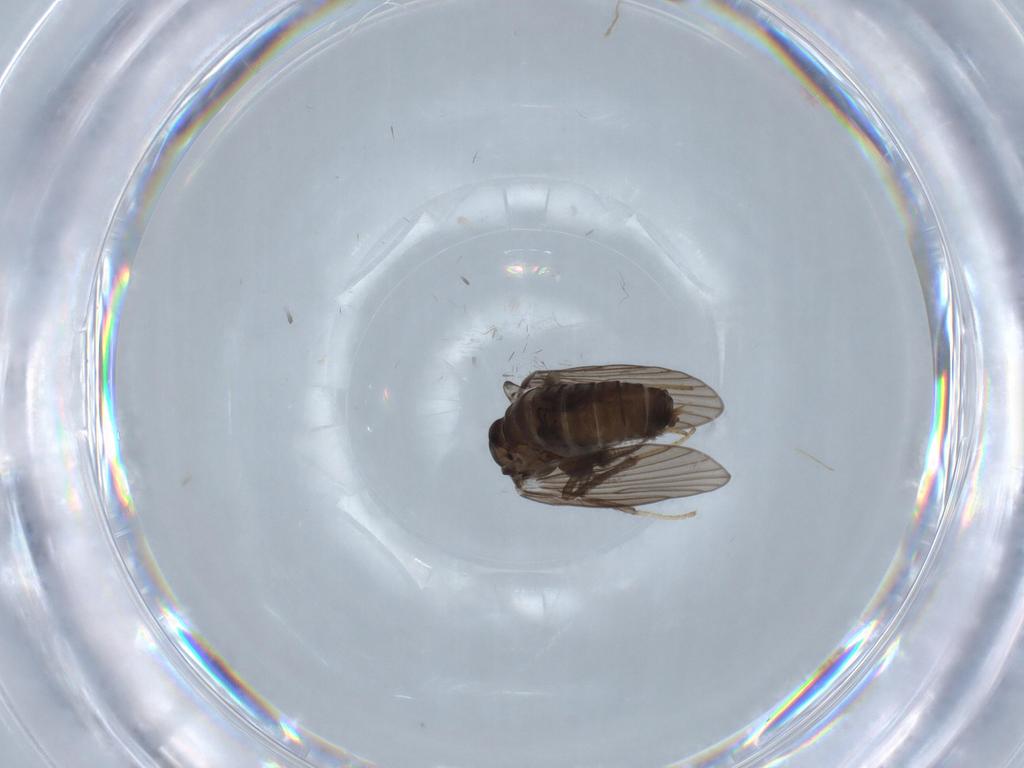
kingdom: Animalia
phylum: Arthropoda
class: Insecta
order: Diptera
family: Psychodidae
